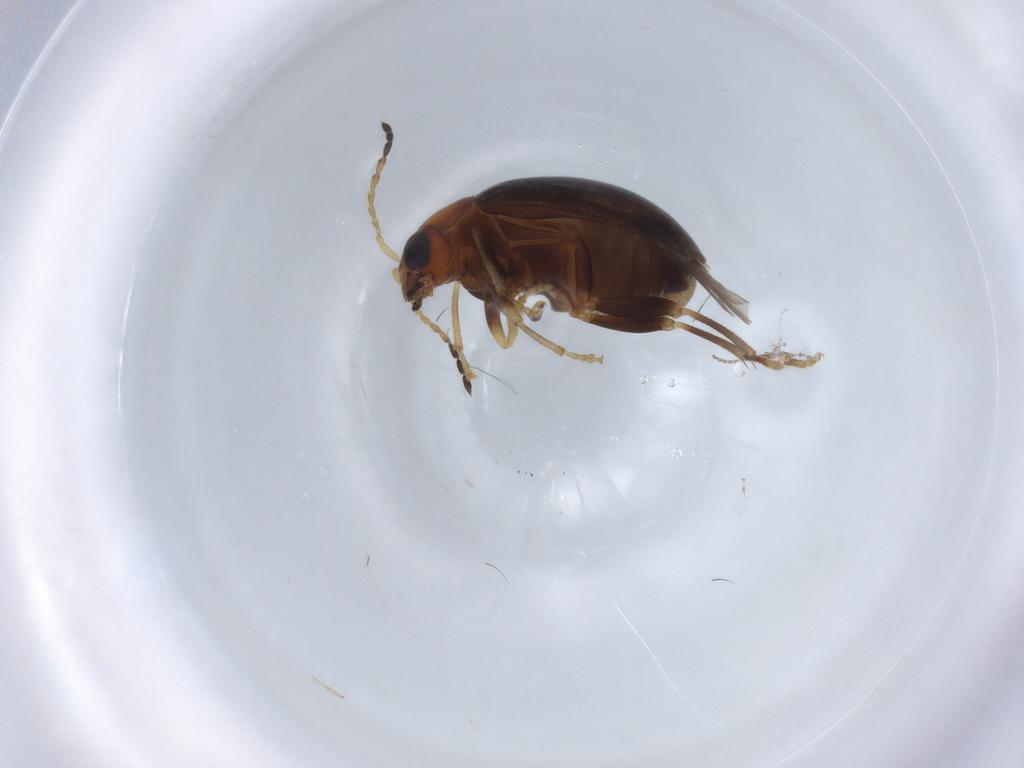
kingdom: Animalia
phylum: Arthropoda
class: Insecta
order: Coleoptera
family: Chrysomelidae
